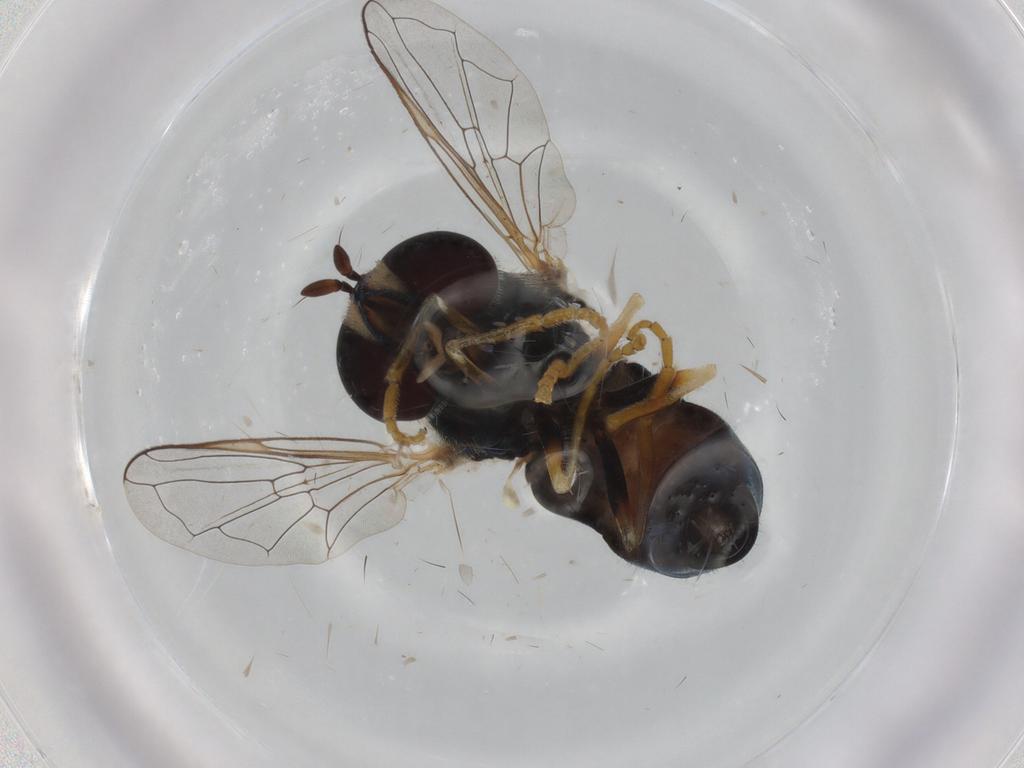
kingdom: Animalia
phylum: Arthropoda
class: Insecta
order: Diptera
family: Syrphidae
